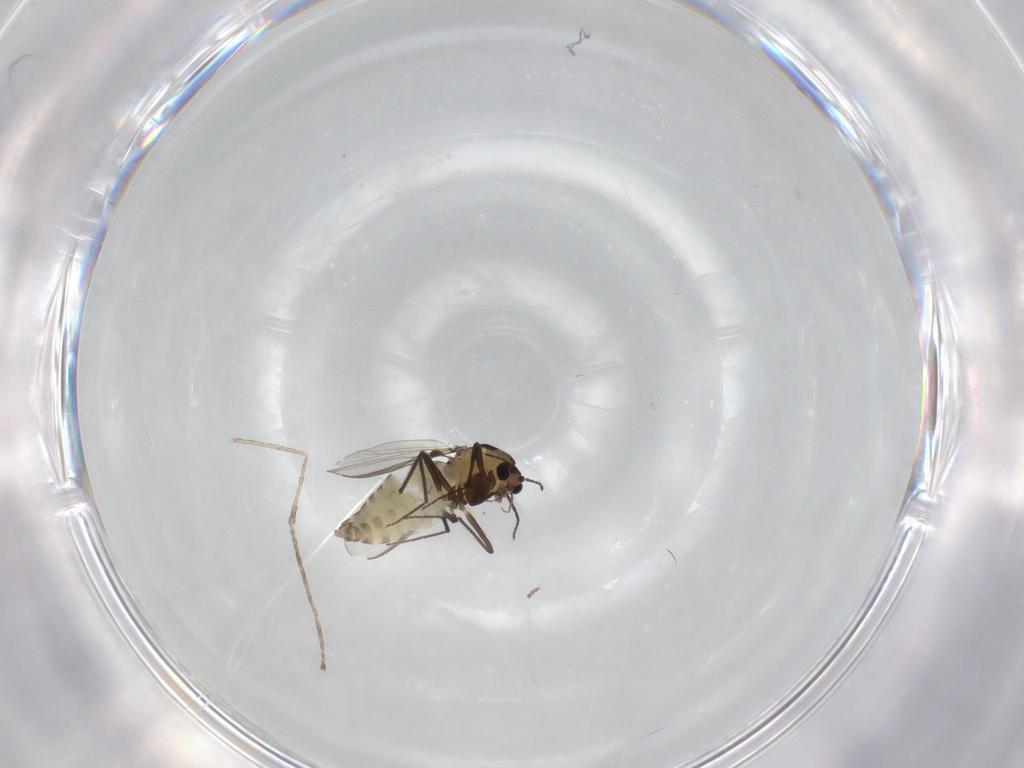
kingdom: Animalia
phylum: Arthropoda
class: Insecta
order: Diptera
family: Chironomidae
